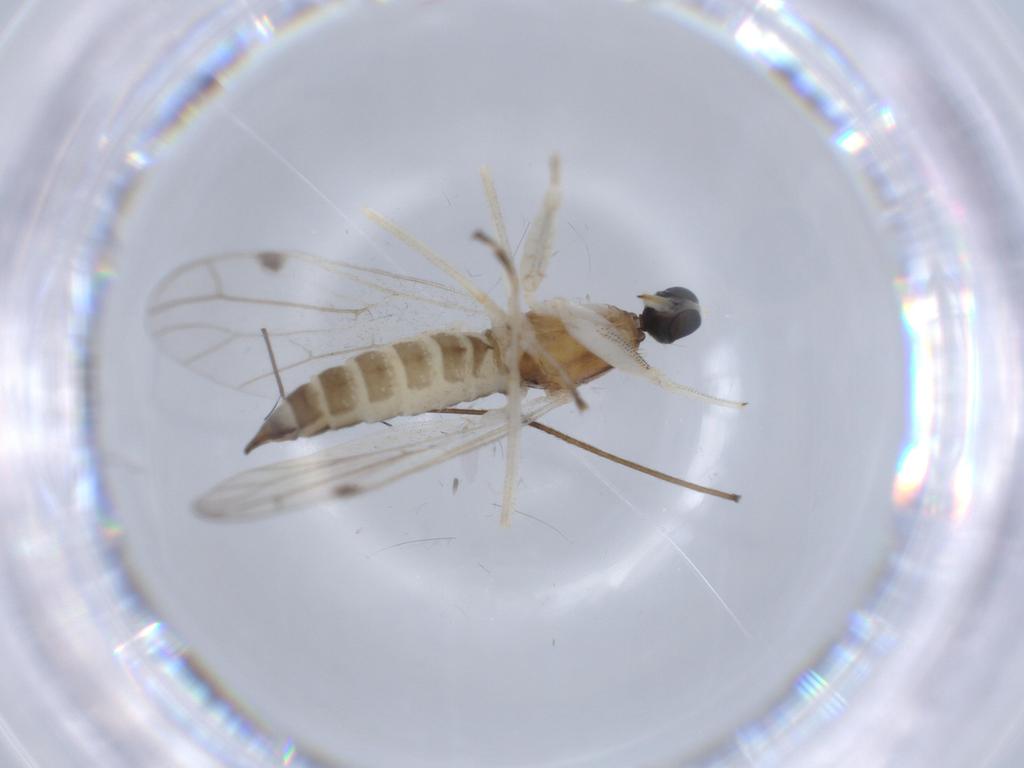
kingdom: Animalia
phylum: Arthropoda
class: Insecta
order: Diptera
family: Empididae
